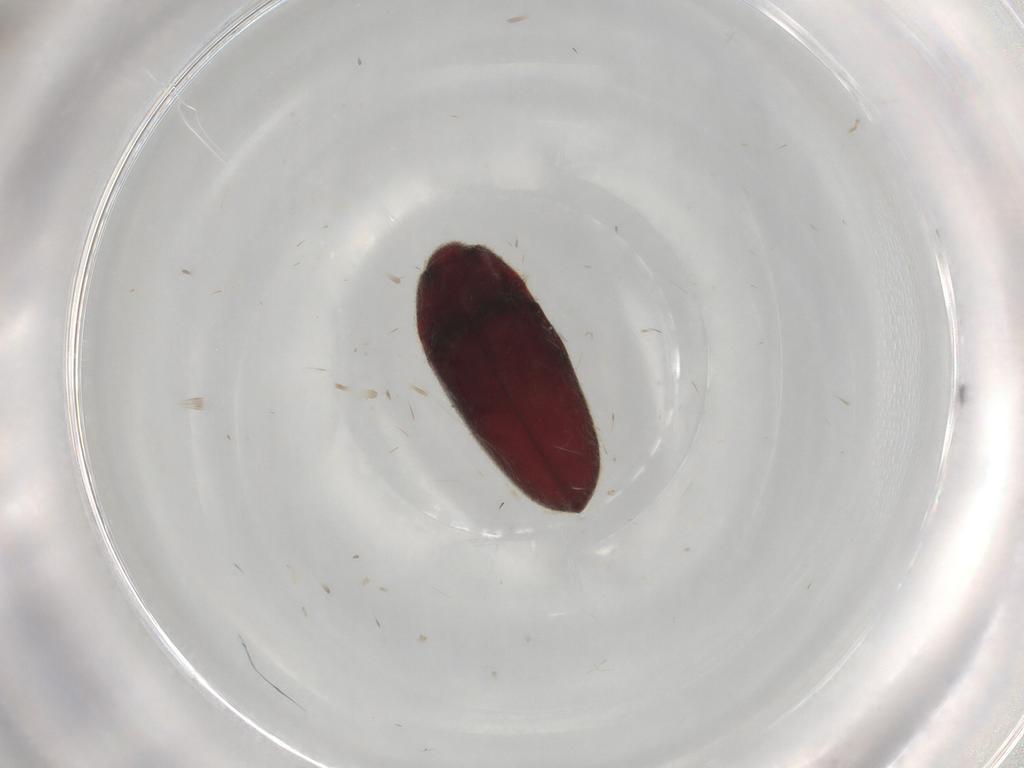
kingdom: Animalia
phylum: Arthropoda
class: Insecta
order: Coleoptera
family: Throscidae
